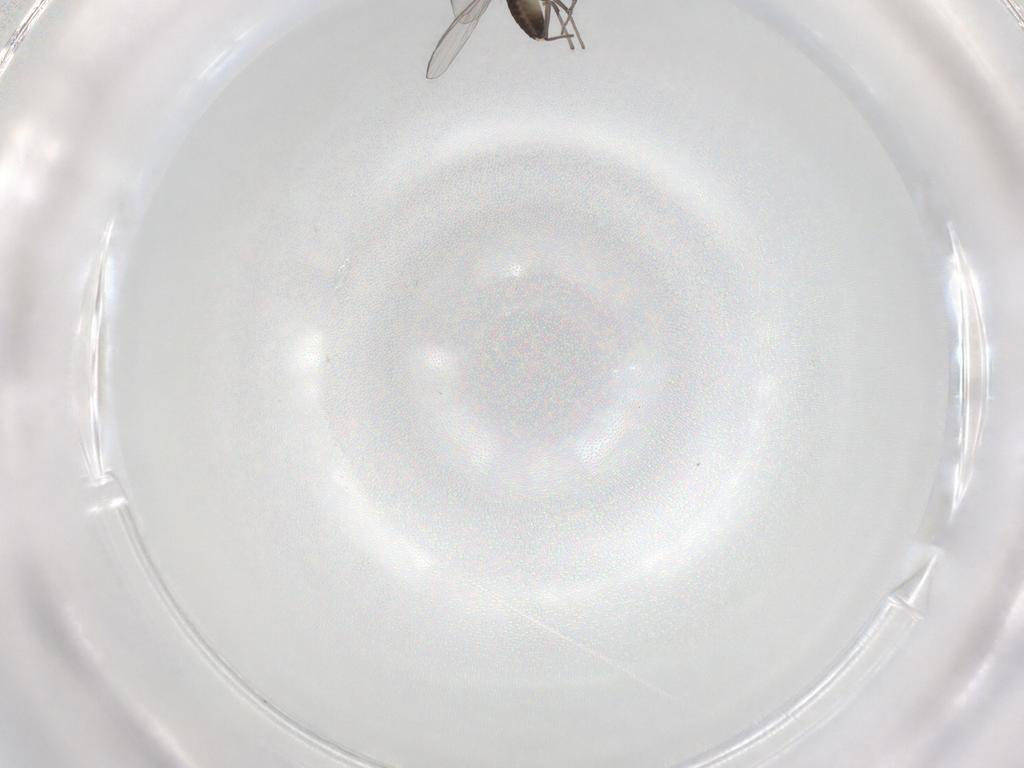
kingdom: Animalia
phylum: Arthropoda
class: Insecta
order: Diptera
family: Chironomidae
